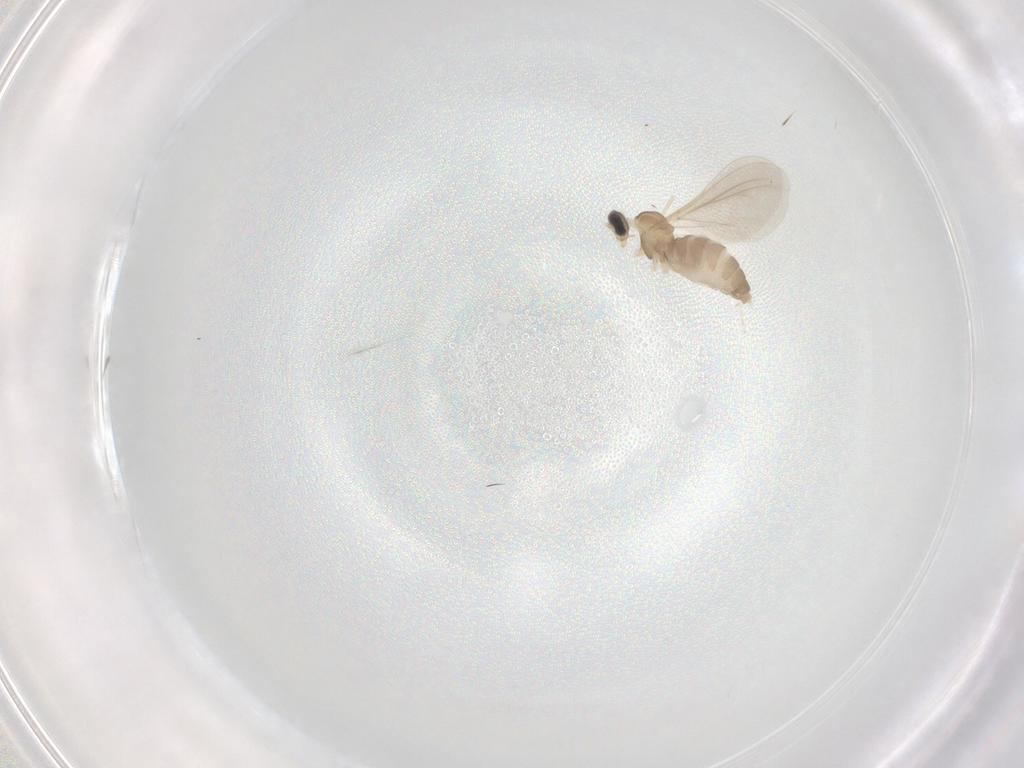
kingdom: Animalia
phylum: Arthropoda
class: Insecta
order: Diptera
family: Cecidomyiidae
